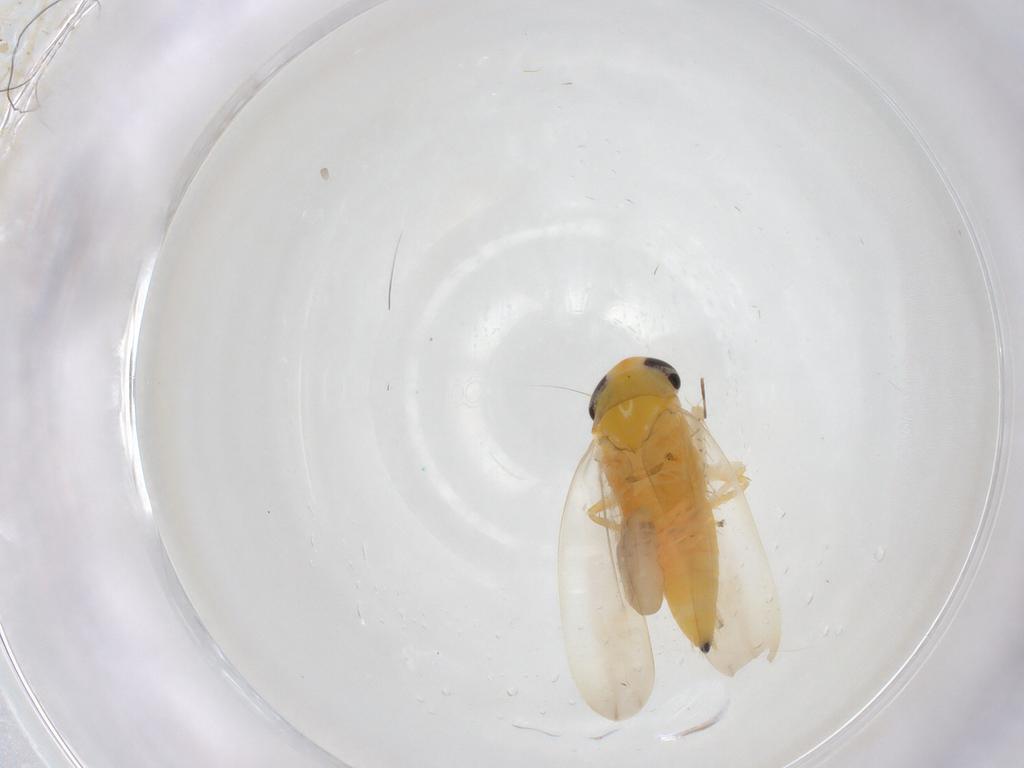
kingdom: Animalia
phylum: Arthropoda
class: Insecta
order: Hemiptera
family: Cicadellidae
